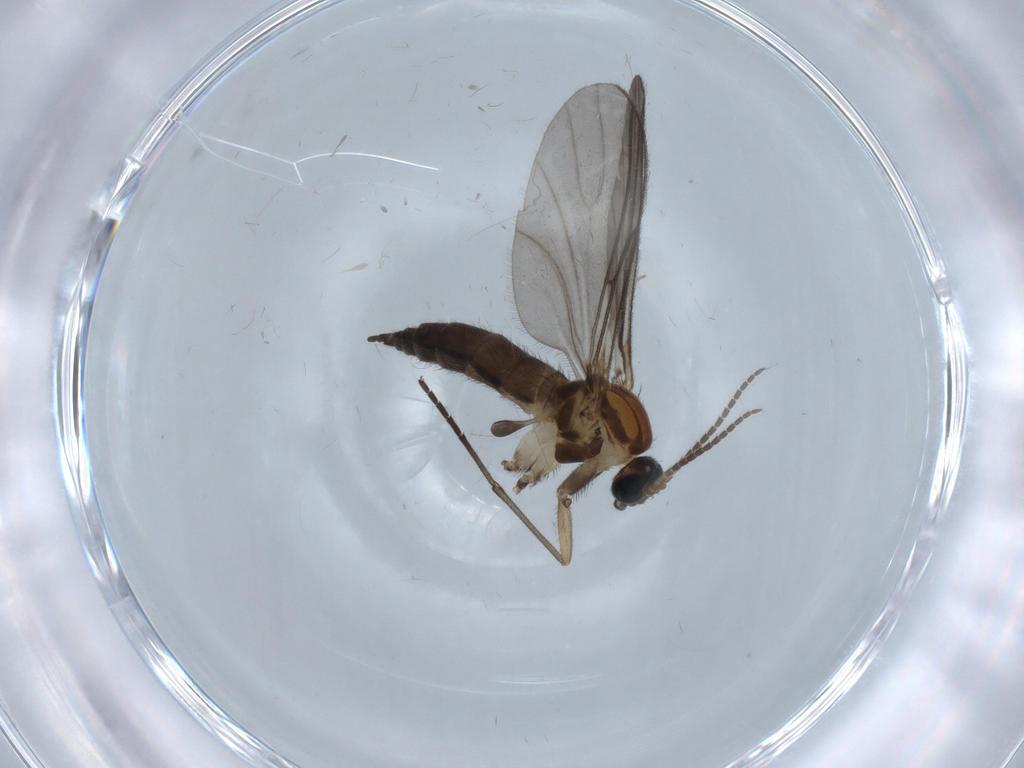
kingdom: Animalia
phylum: Arthropoda
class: Insecta
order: Diptera
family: Sciaridae
